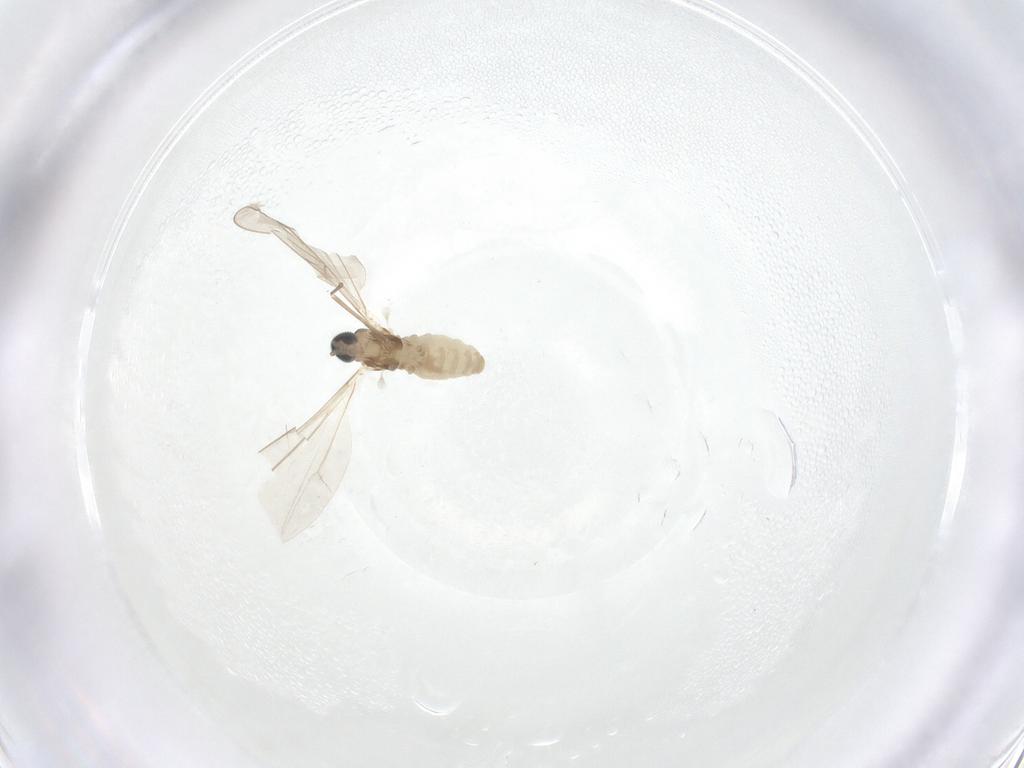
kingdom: Animalia
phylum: Arthropoda
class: Insecta
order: Diptera
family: Cecidomyiidae
